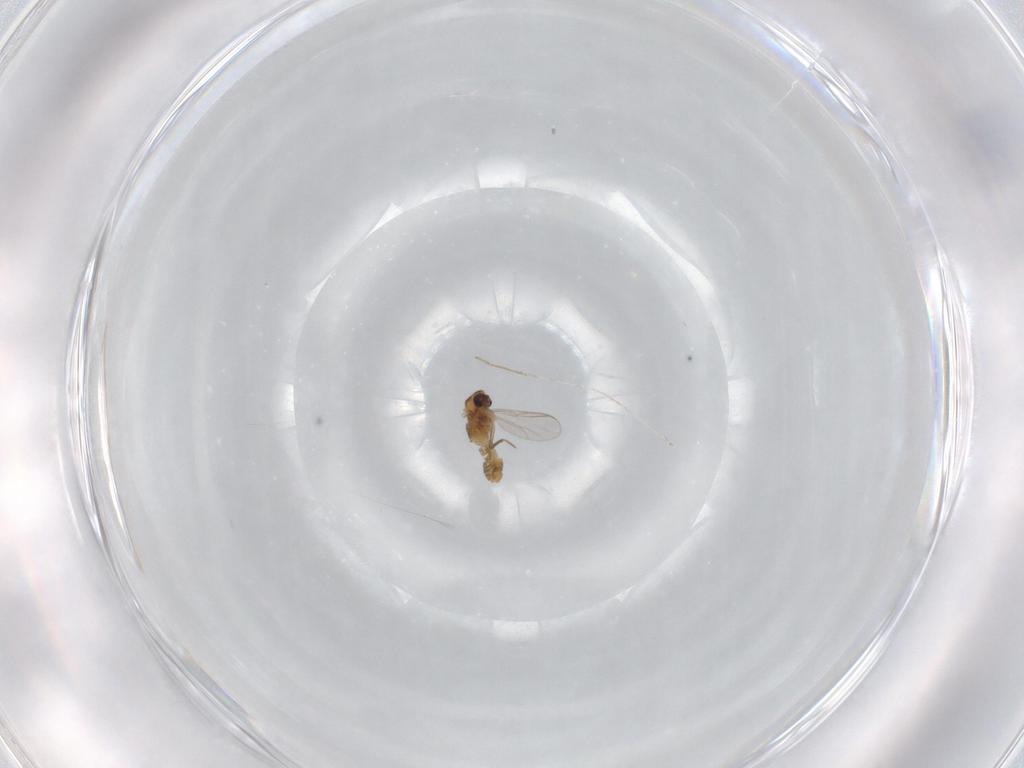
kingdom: Animalia
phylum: Arthropoda
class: Insecta
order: Diptera
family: Chironomidae
